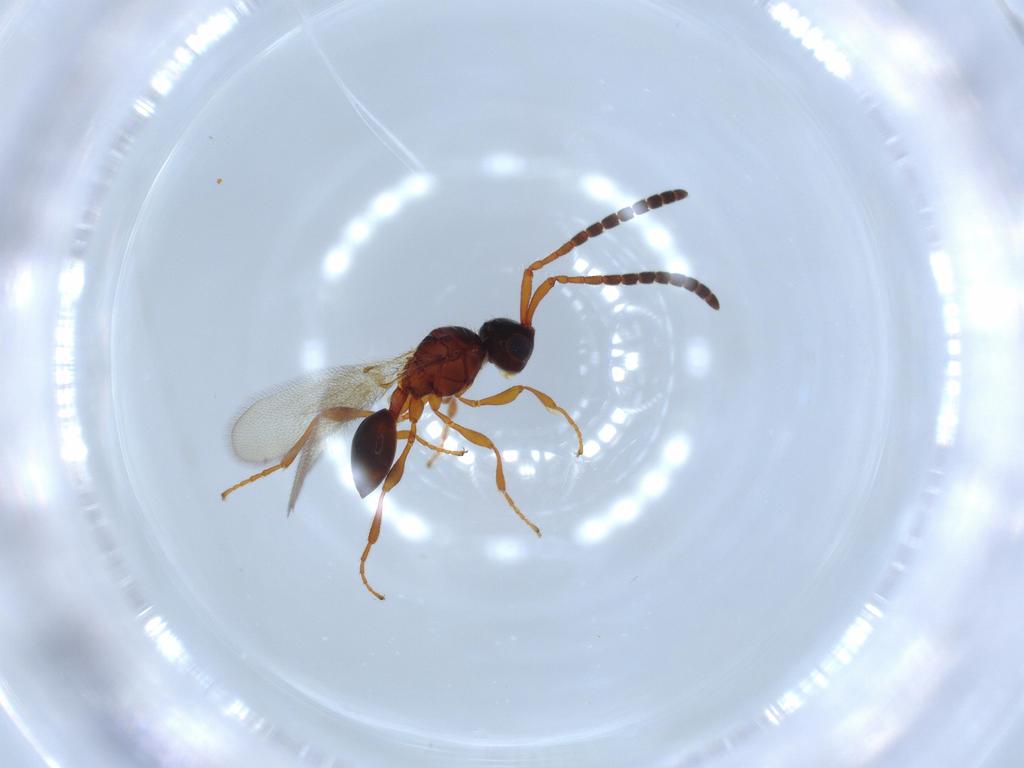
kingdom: Animalia
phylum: Arthropoda
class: Insecta
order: Hymenoptera
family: Diapriidae
